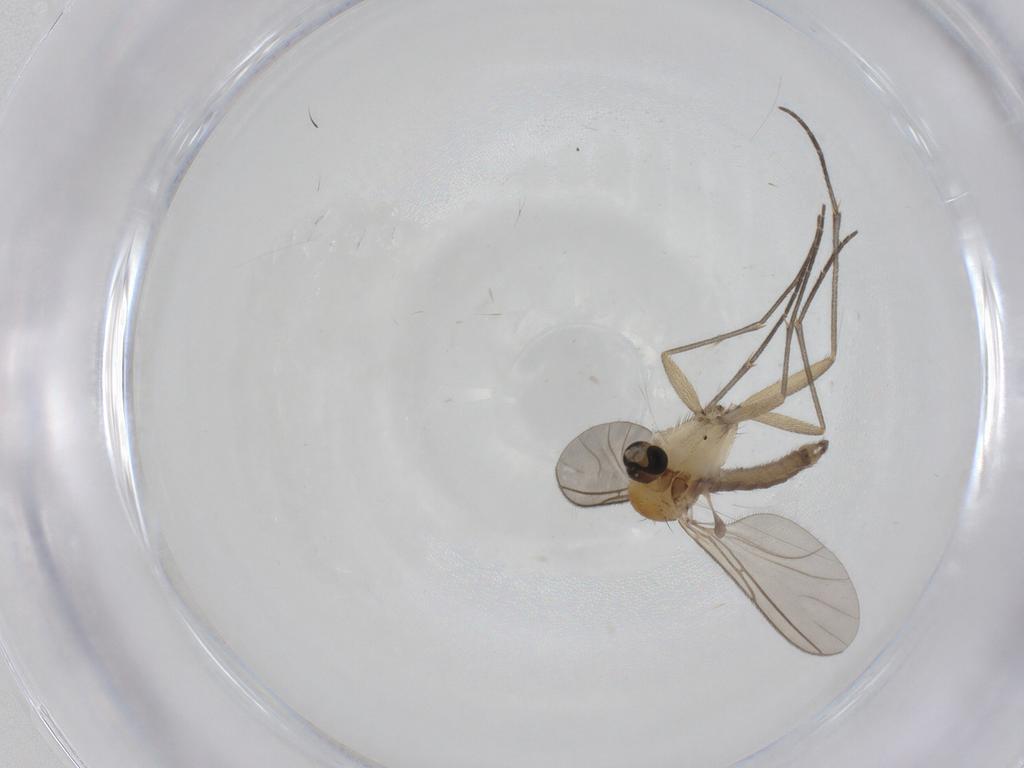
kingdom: Animalia
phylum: Arthropoda
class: Insecta
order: Diptera
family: Sciaridae
